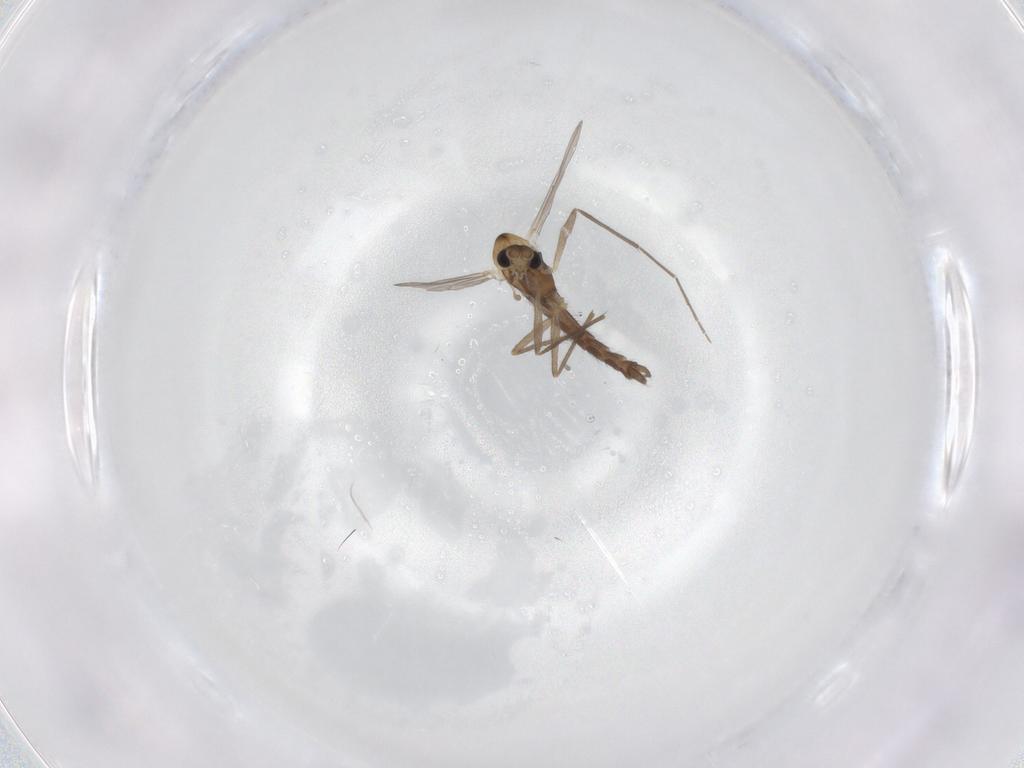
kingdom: Animalia
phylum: Arthropoda
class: Insecta
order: Diptera
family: Chironomidae
